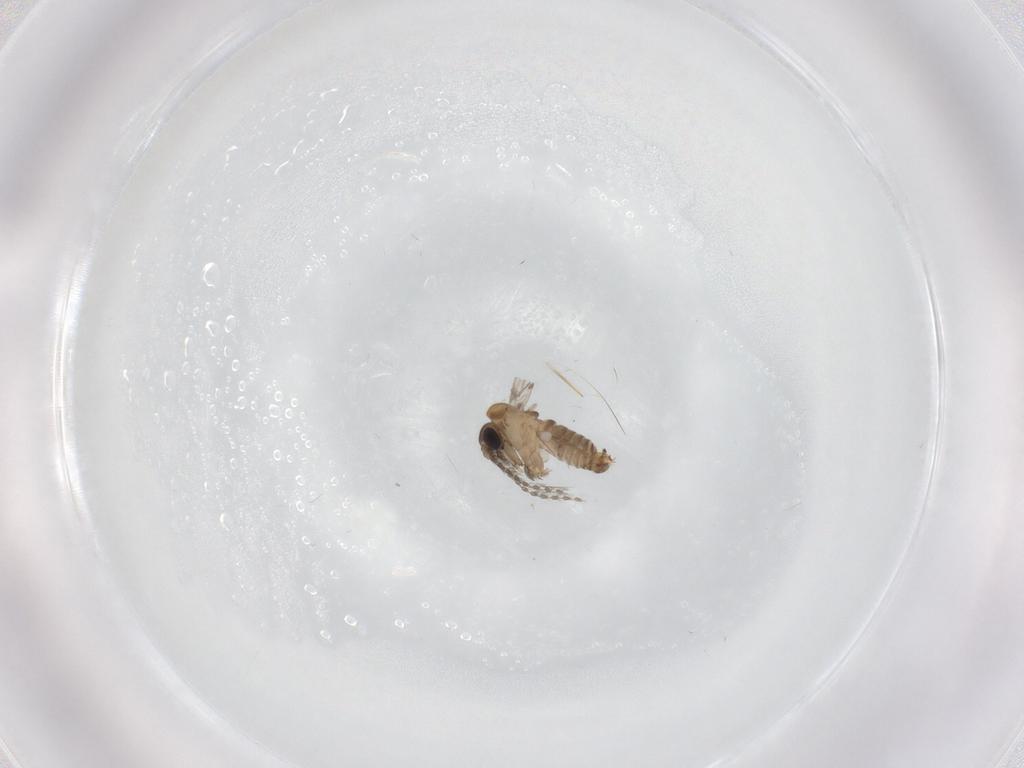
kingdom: Animalia
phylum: Arthropoda
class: Insecta
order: Diptera
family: Psychodidae
